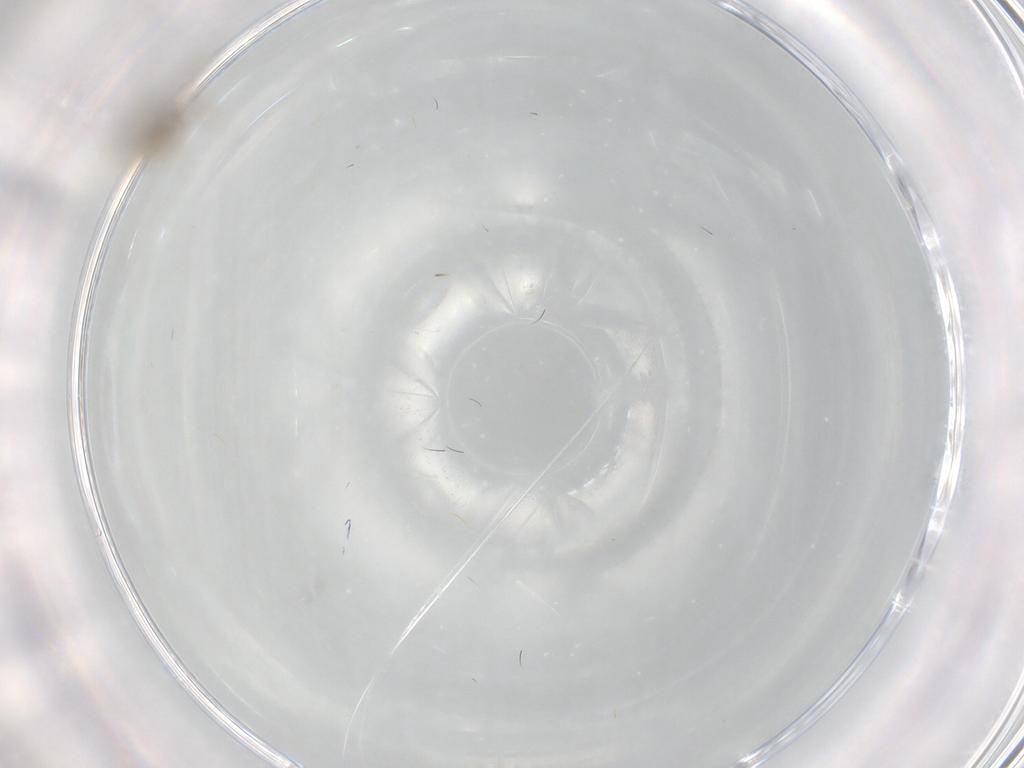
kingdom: Animalia
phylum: Arthropoda
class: Insecta
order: Diptera
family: Cecidomyiidae
